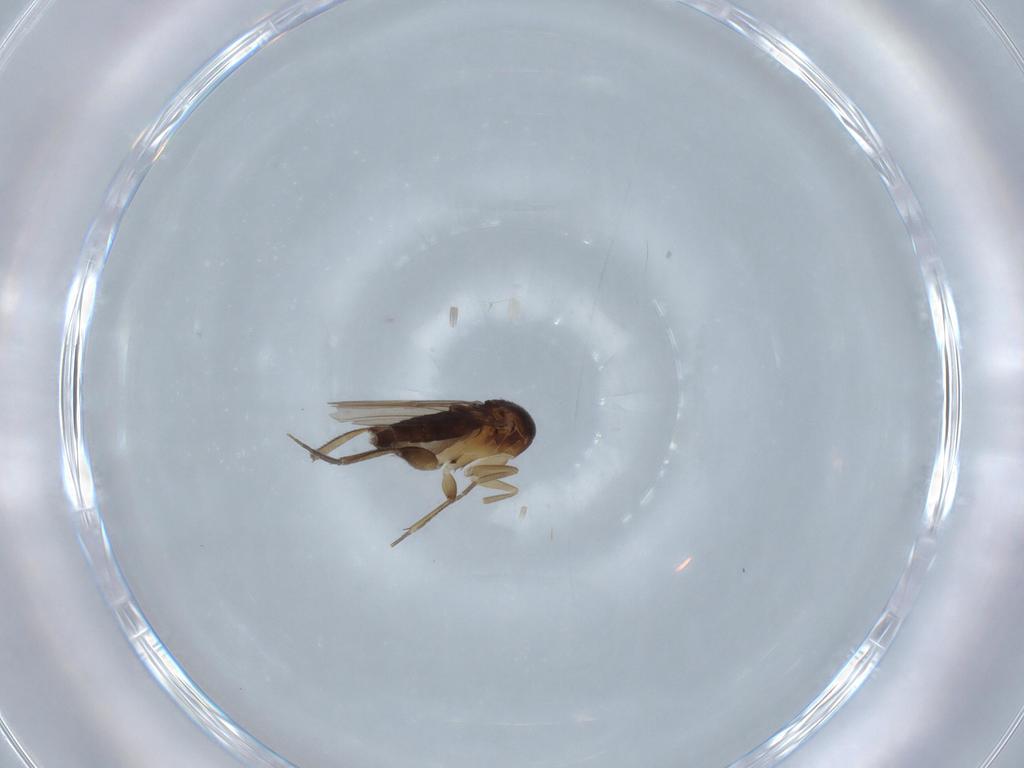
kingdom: Animalia
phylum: Arthropoda
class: Insecta
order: Diptera
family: Phoridae
